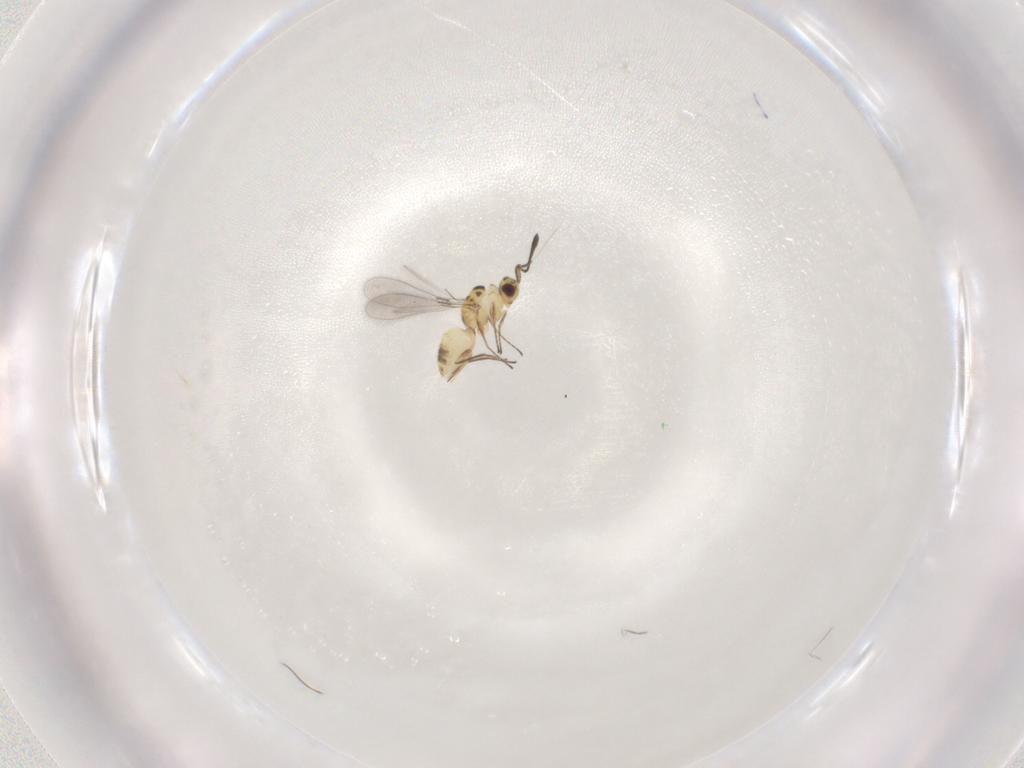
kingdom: Animalia
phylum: Arthropoda
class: Insecta
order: Hymenoptera
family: Mymaridae
